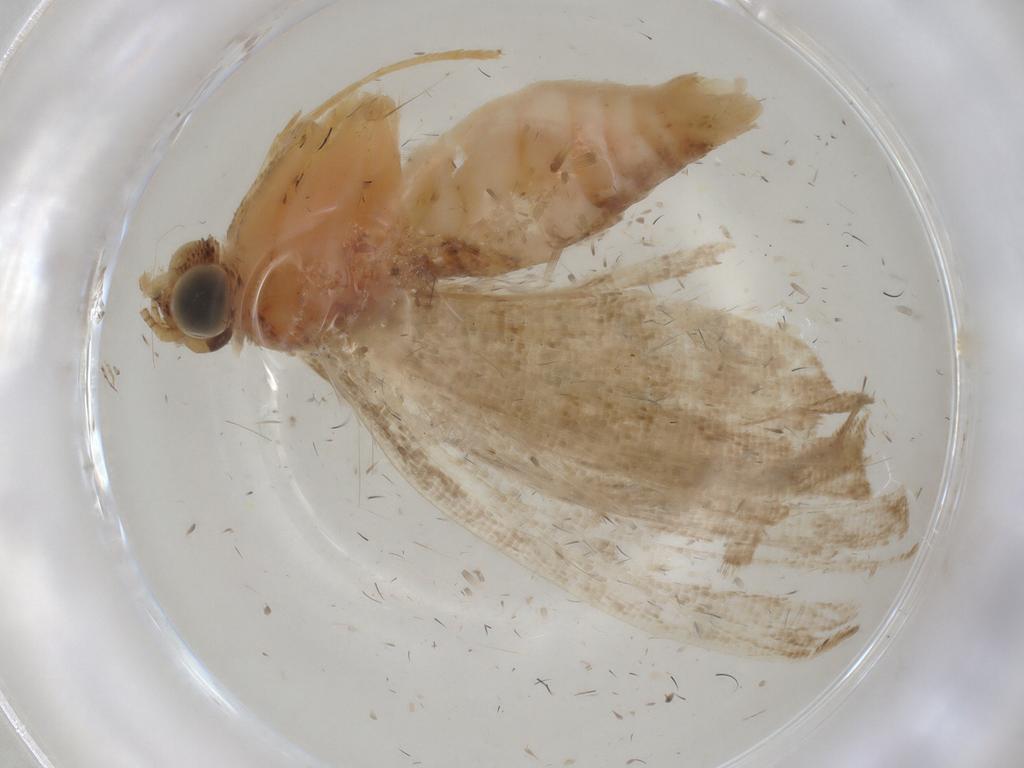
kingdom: Animalia
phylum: Arthropoda
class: Insecta
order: Lepidoptera
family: Geometridae
